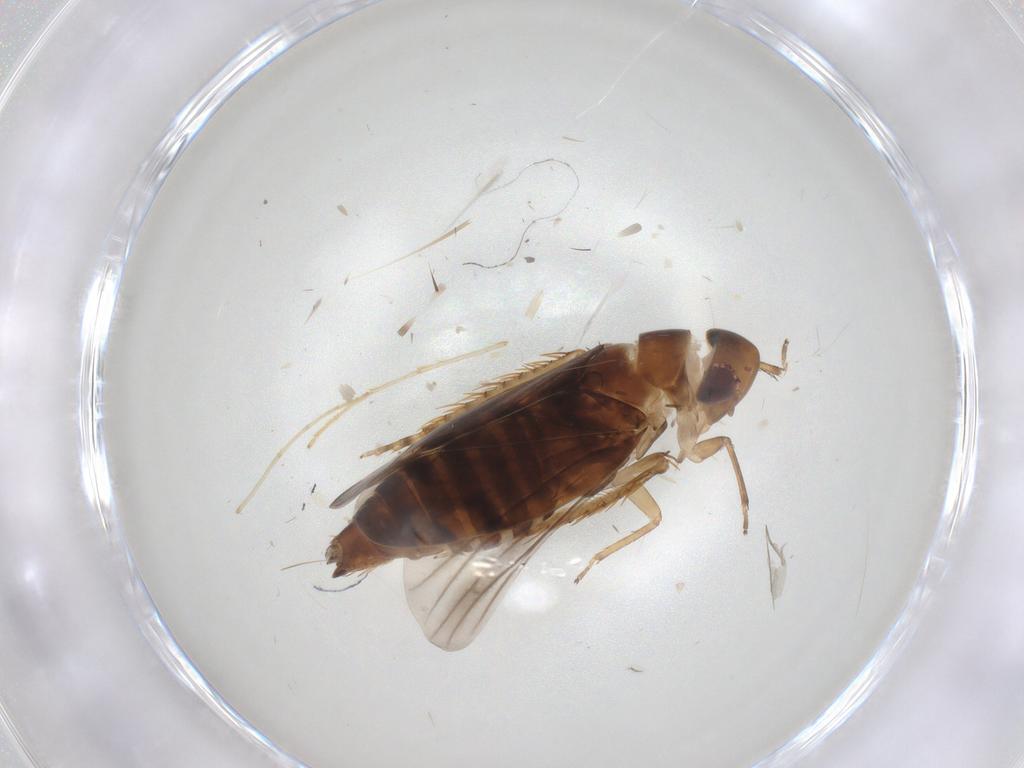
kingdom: Animalia
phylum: Arthropoda
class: Insecta
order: Hemiptera
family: Cicadellidae
